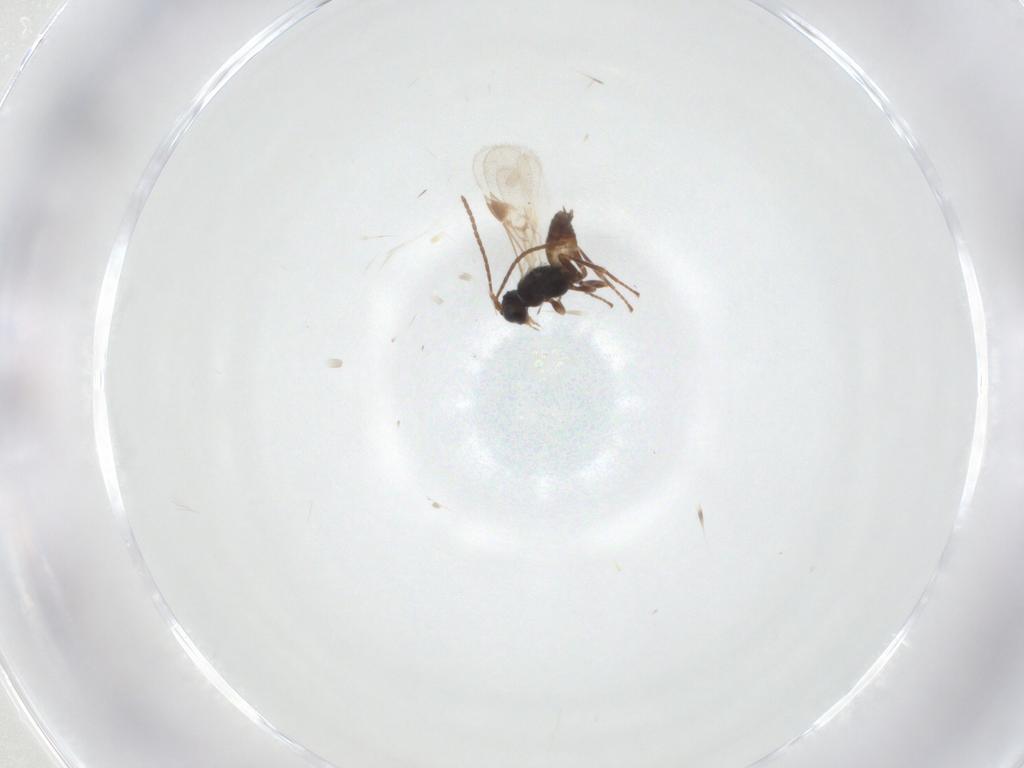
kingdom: Animalia
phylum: Arthropoda
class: Insecta
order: Hymenoptera
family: Braconidae
